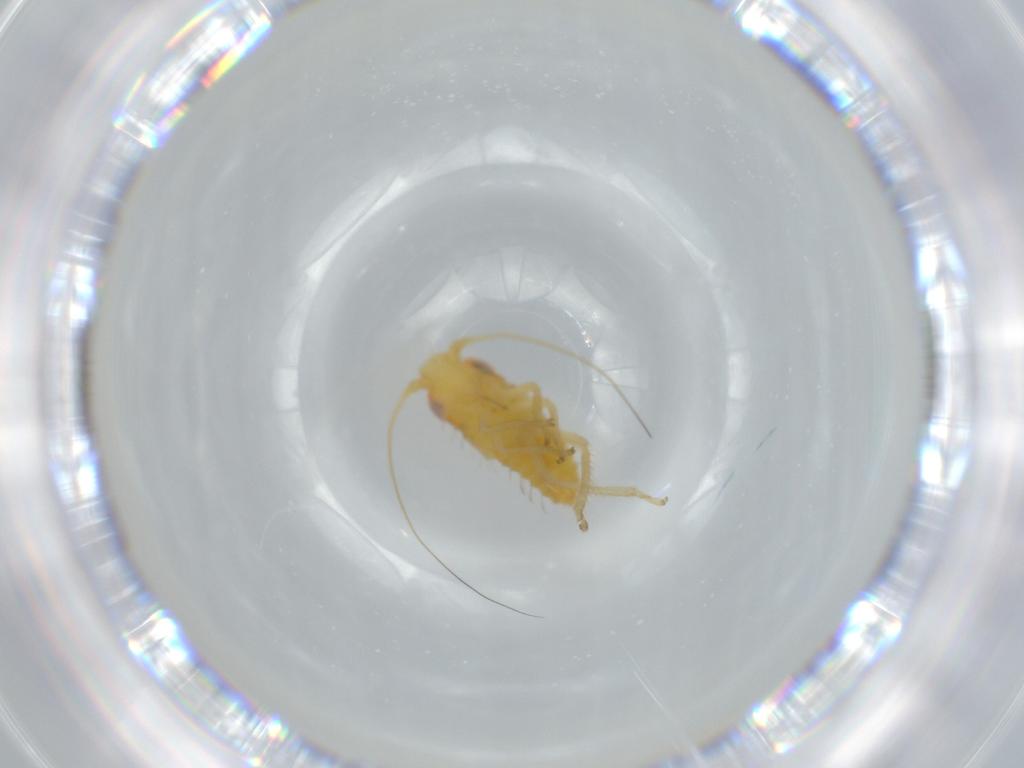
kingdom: Animalia
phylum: Arthropoda
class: Insecta
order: Hemiptera
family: Cicadellidae
